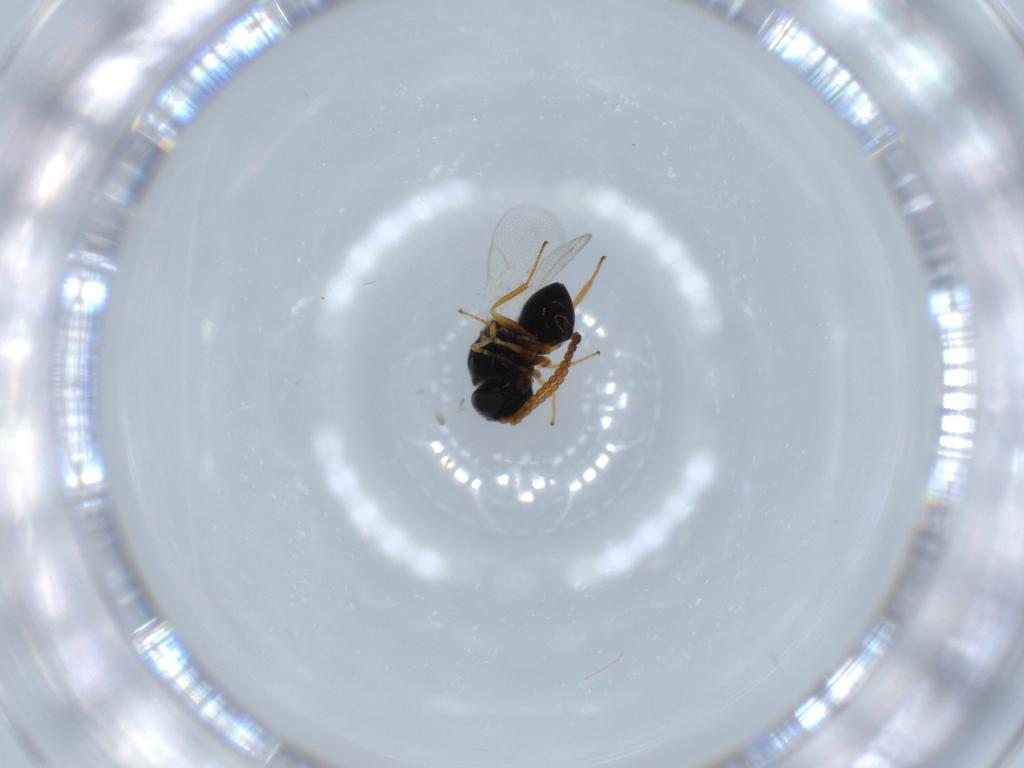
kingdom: Animalia
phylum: Arthropoda
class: Insecta
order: Hymenoptera
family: Figitidae
